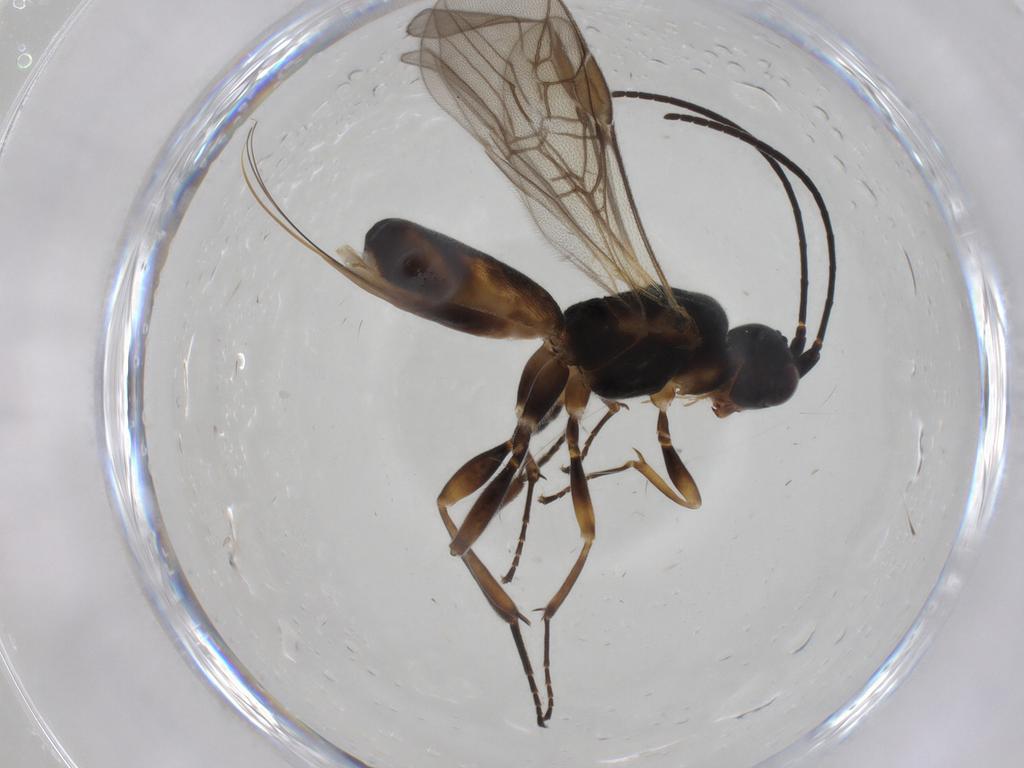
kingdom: Animalia
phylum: Arthropoda
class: Insecta
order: Hymenoptera
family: Braconidae
